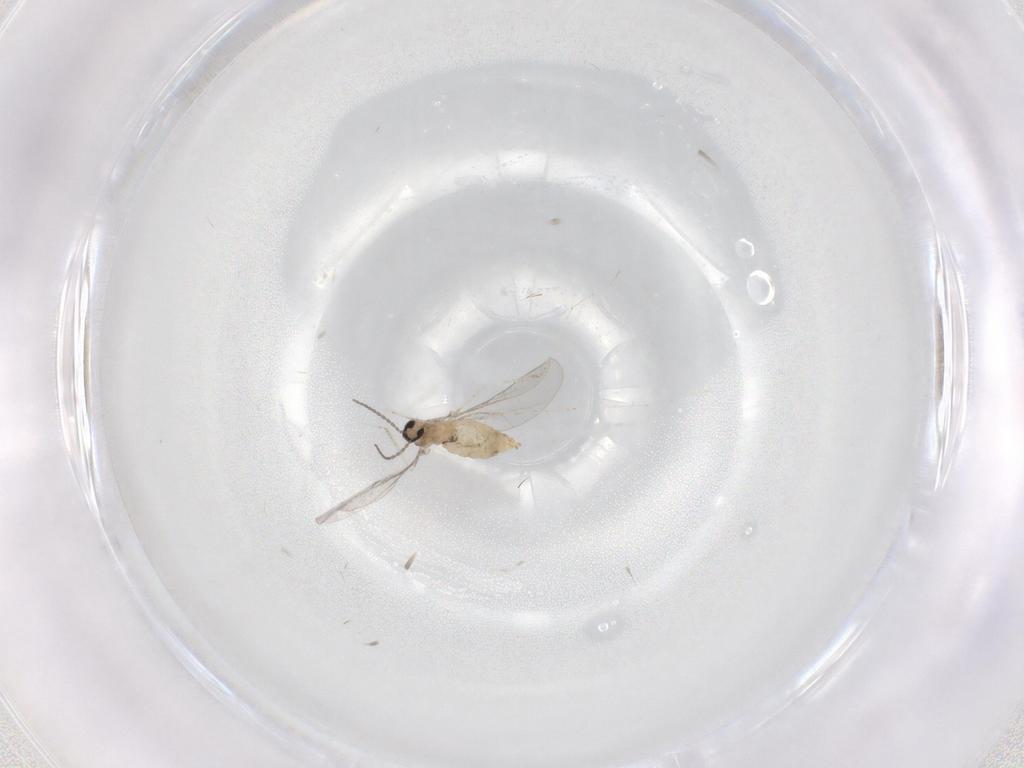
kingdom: Animalia
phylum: Arthropoda
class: Insecta
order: Diptera
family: Cecidomyiidae
